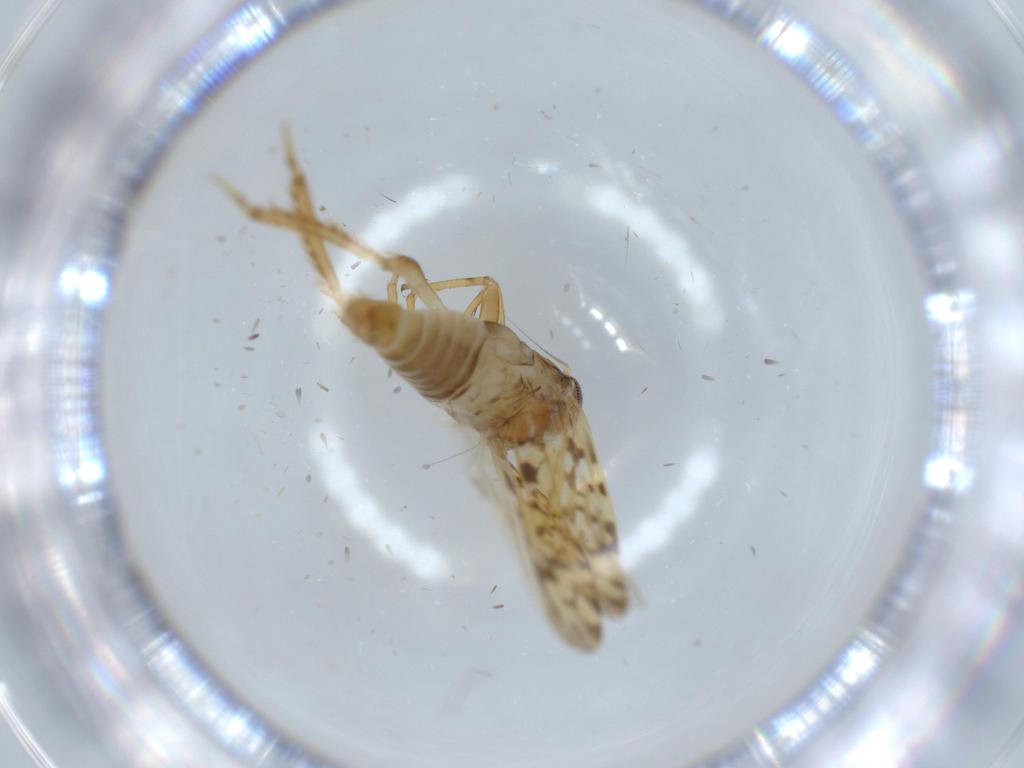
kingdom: Animalia
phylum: Arthropoda
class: Insecta
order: Hemiptera
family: Cicadellidae
